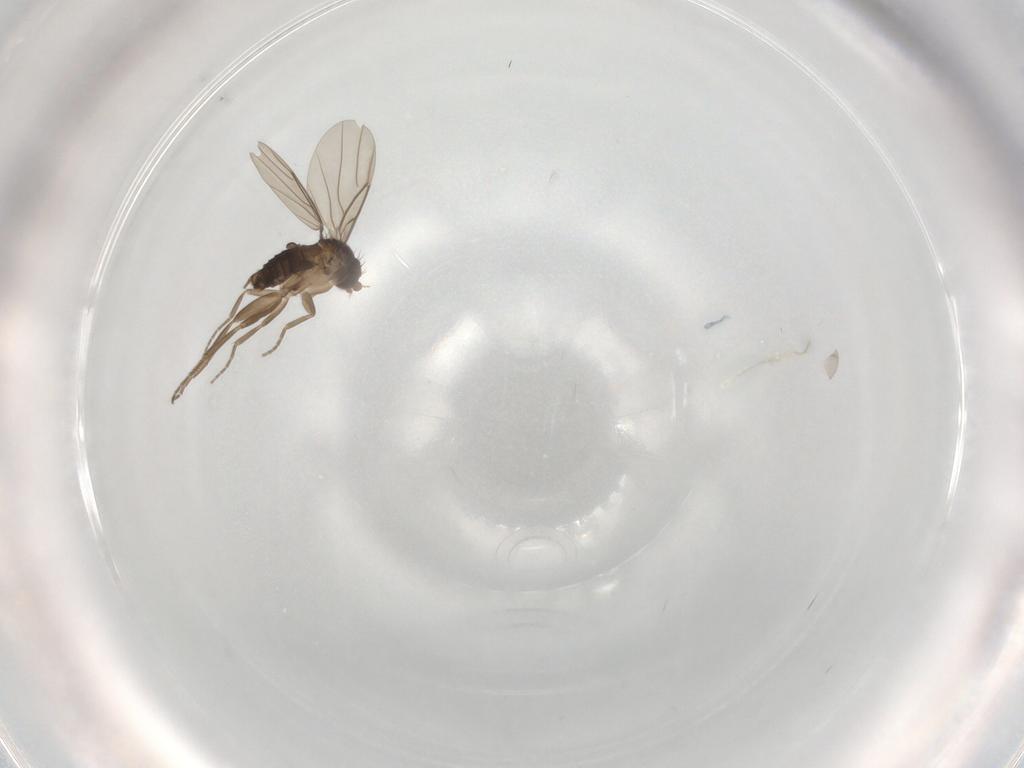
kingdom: Animalia
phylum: Arthropoda
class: Insecta
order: Diptera
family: Phoridae
